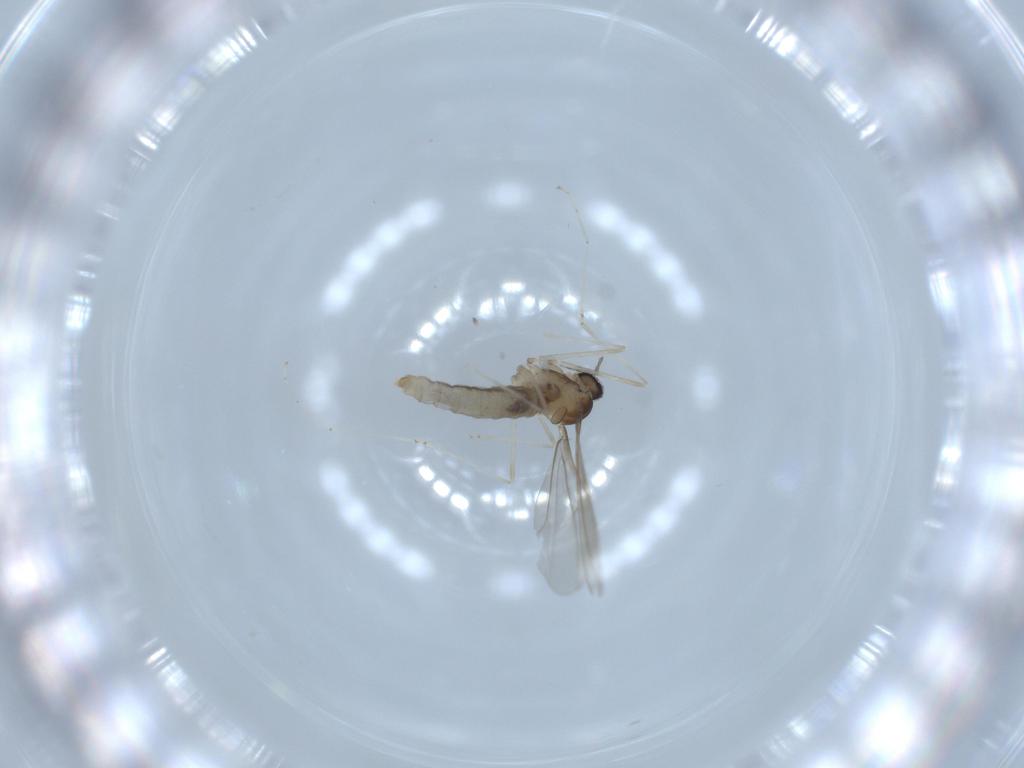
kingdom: Animalia
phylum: Arthropoda
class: Insecta
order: Diptera
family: Cecidomyiidae
